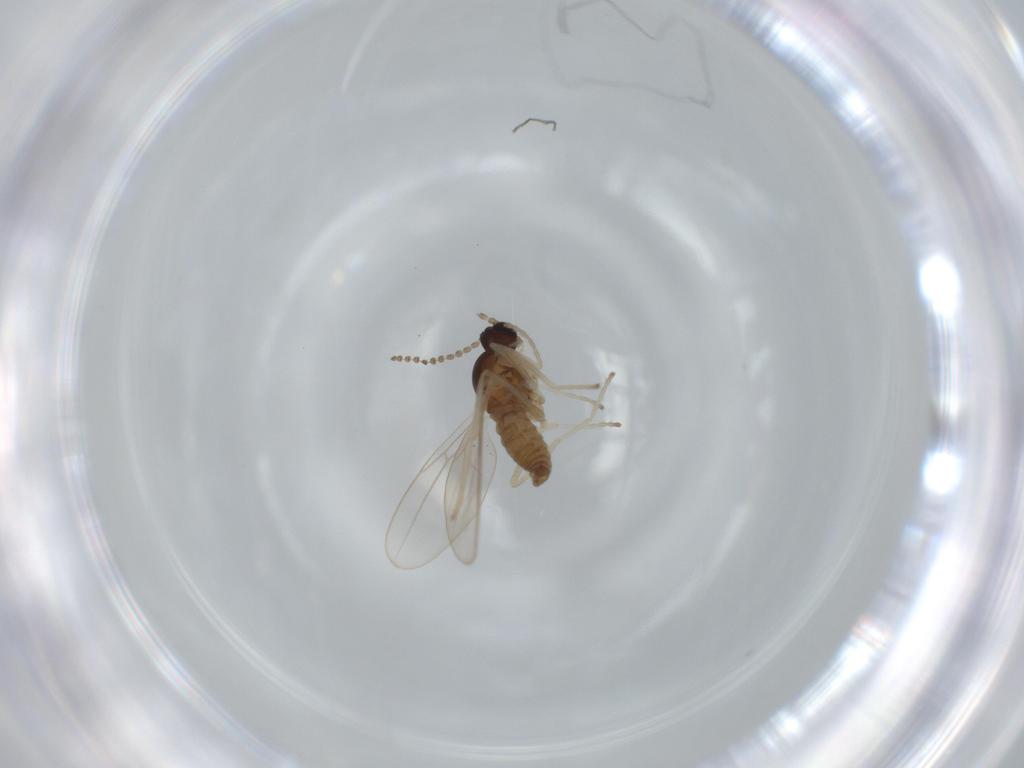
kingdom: Animalia
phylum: Arthropoda
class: Insecta
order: Diptera
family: Cecidomyiidae
